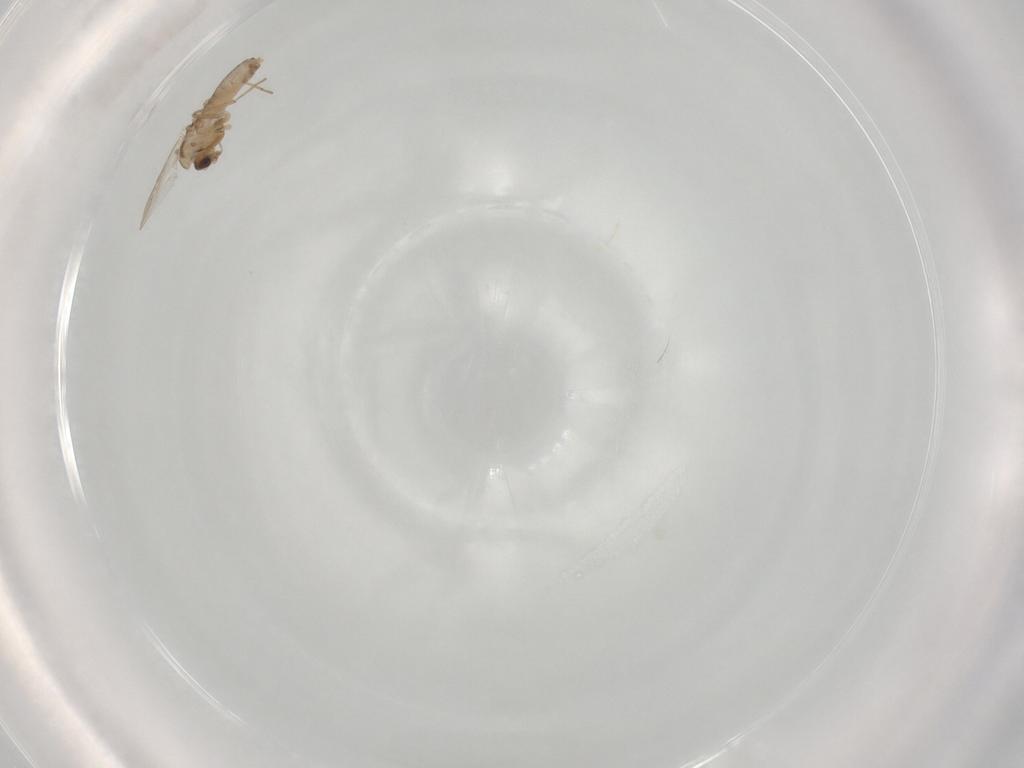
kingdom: Animalia
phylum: Arthropoda
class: Insecta
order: Diptera
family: Chironomidae
